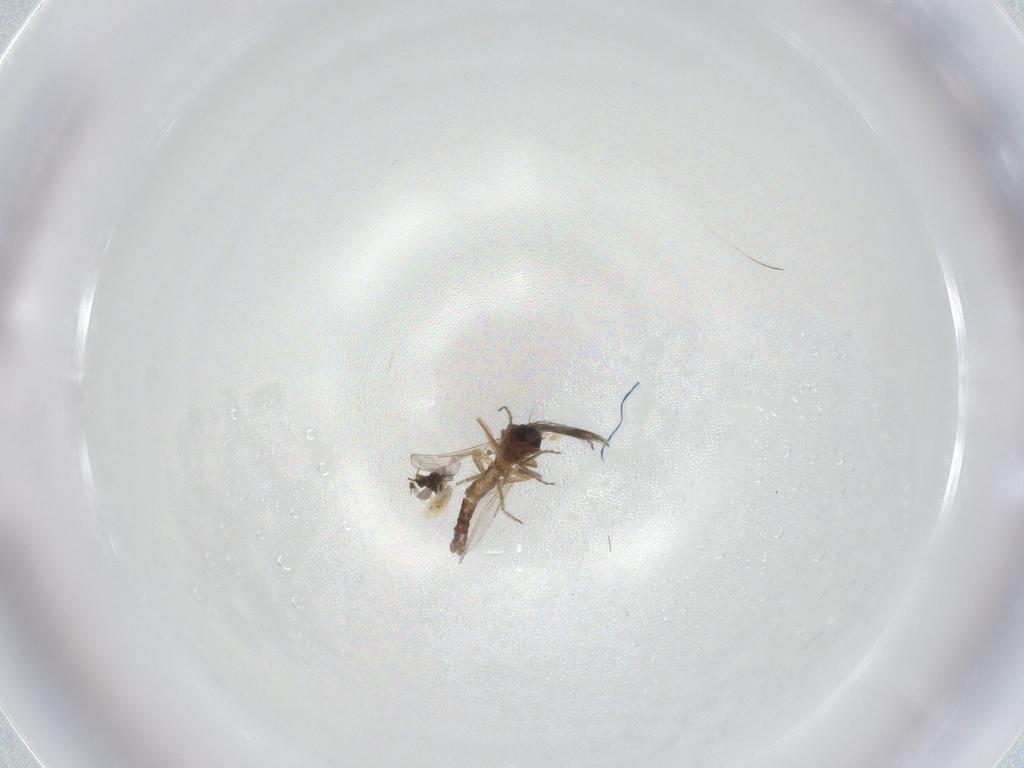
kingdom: Animalia
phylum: Arthropoda
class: Insecta
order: Diptera
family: Ceratopogonidae
